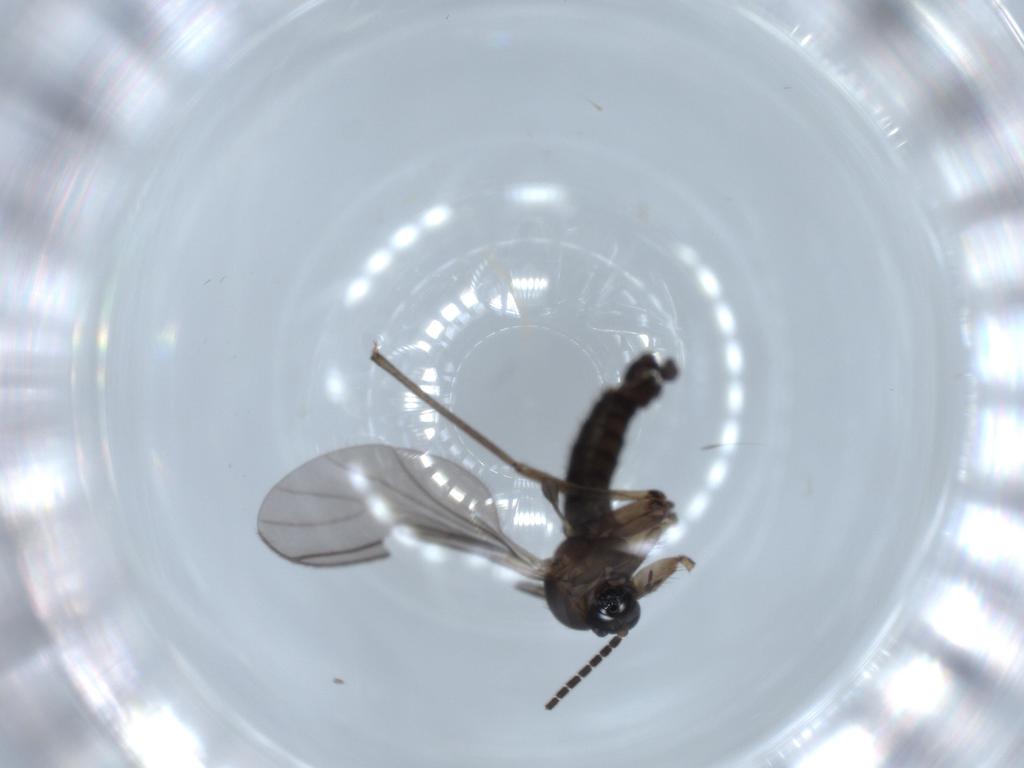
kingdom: Animalia
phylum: Arthropoda
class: Insecta
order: Diptera
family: Sciaridae
